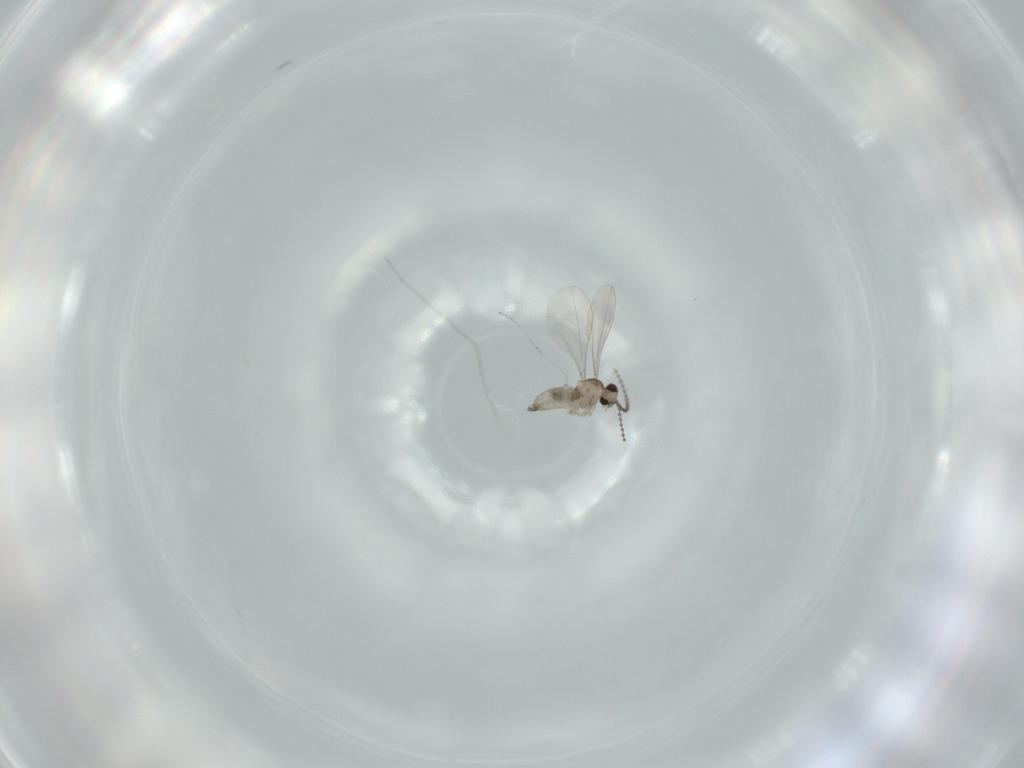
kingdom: Animalia
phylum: Arthropoda
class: Insecta
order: Diptera
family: Cecidomyiidae
